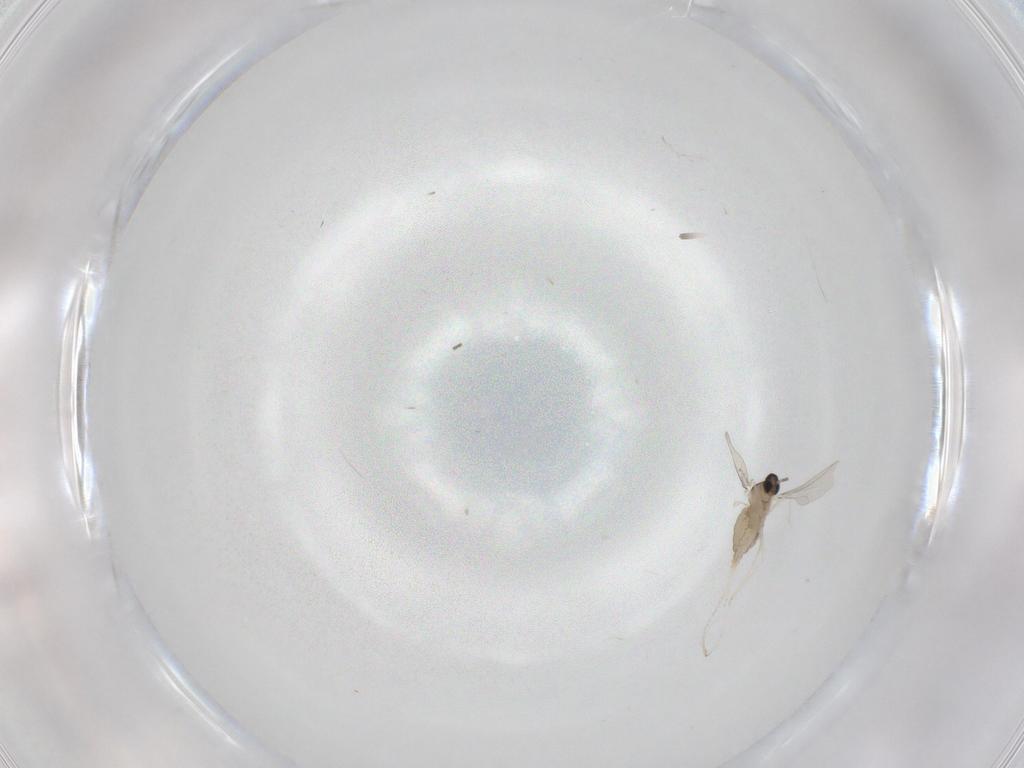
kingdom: Animalia
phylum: Arthropoda
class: Insecta
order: Diptera
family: Cecidomyiidae
